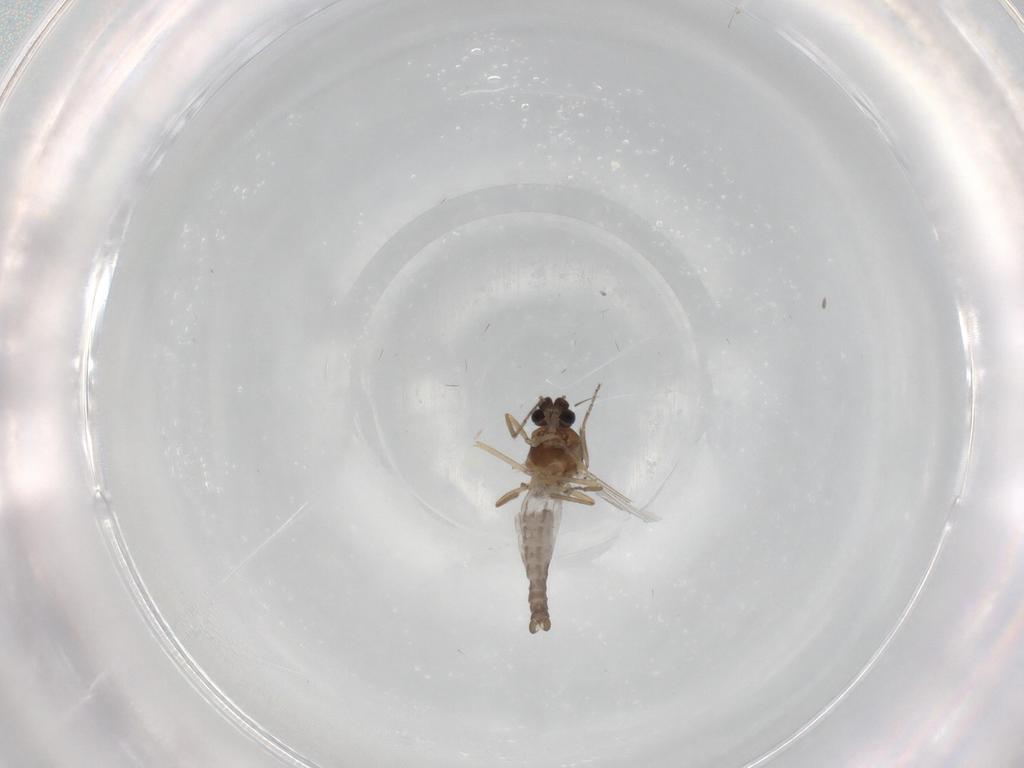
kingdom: Animalia
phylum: Arthropoda
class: Insecta
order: Diptera
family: Ceratopogonidae
